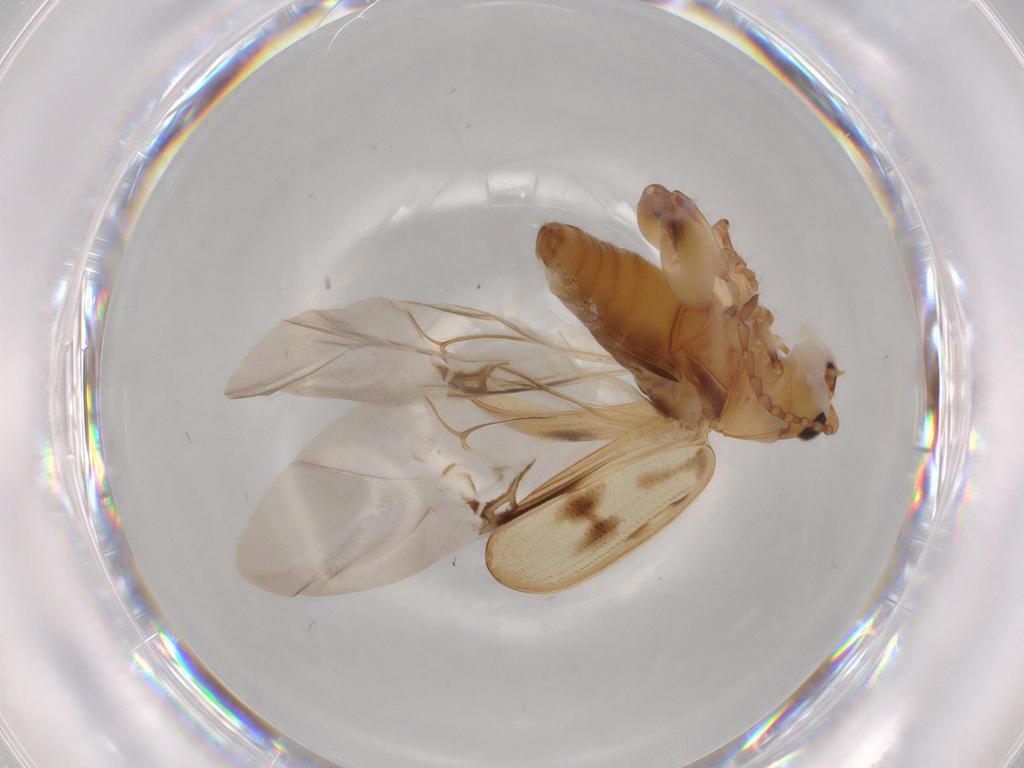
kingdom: Animalia
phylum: Arthropoda
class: Insecta
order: Coleoptera
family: Chrysomelidae
